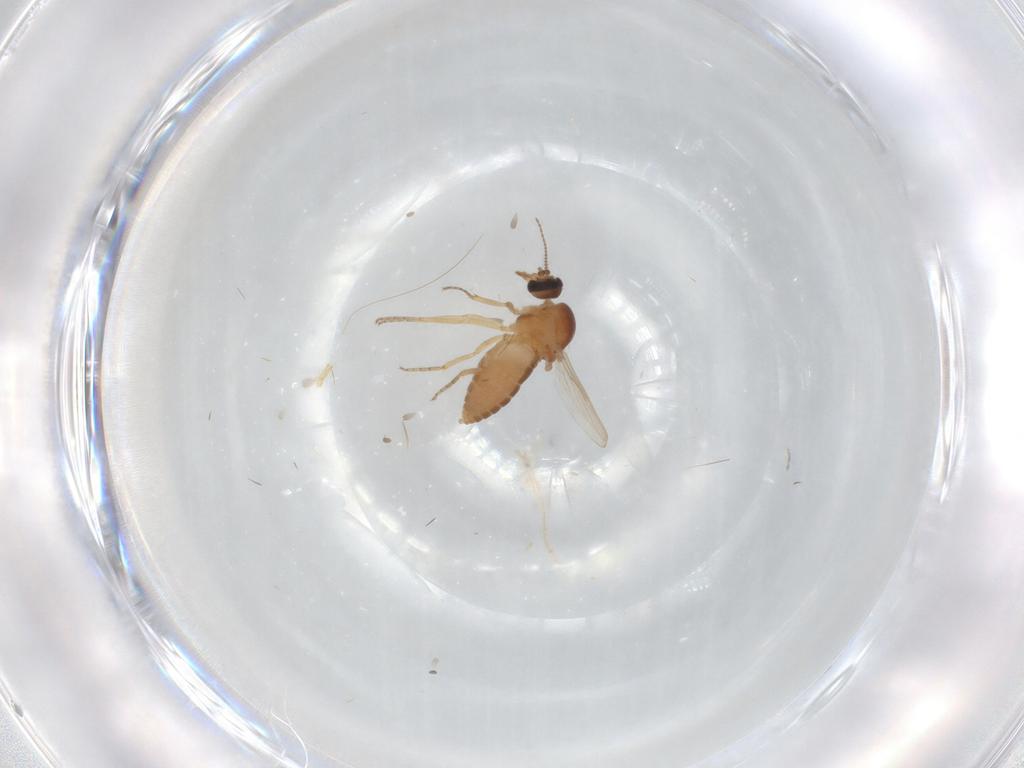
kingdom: Animalia
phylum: Arthropoda
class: Insecta
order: Diptera
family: Ceratopogonidae
